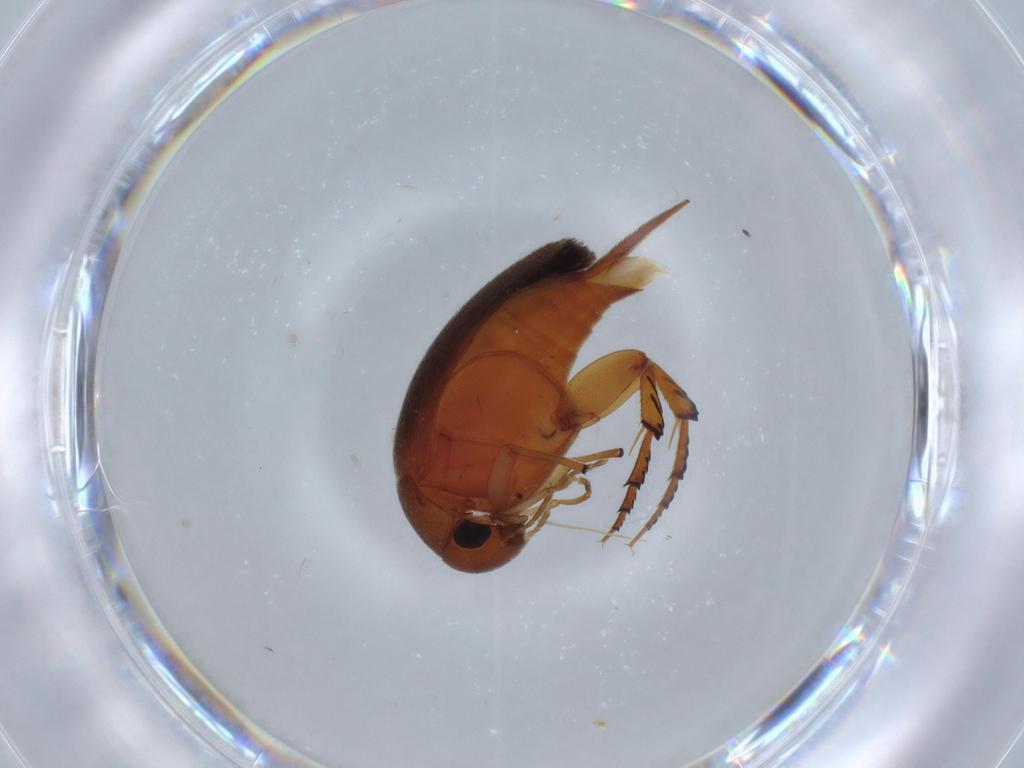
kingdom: Animalia
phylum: Arthropoda
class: Insecta
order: Coleoptera
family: Mordellidae
